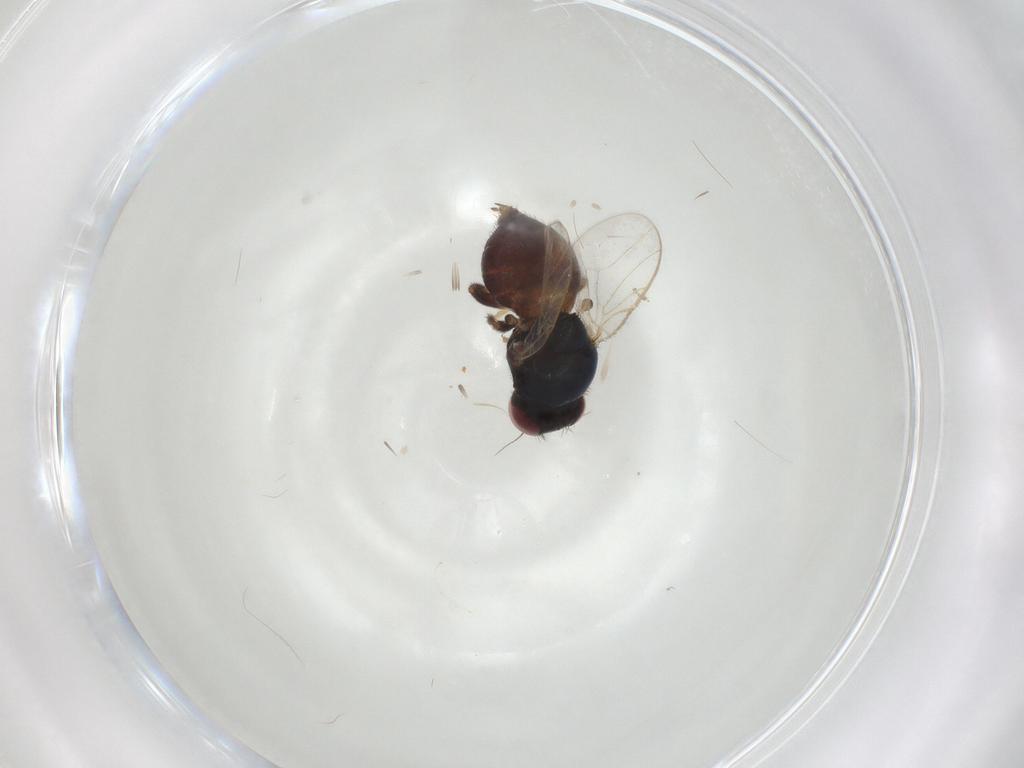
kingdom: Animalia
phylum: Arthropoda
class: Insecta
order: Diptera
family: Chloropidae
